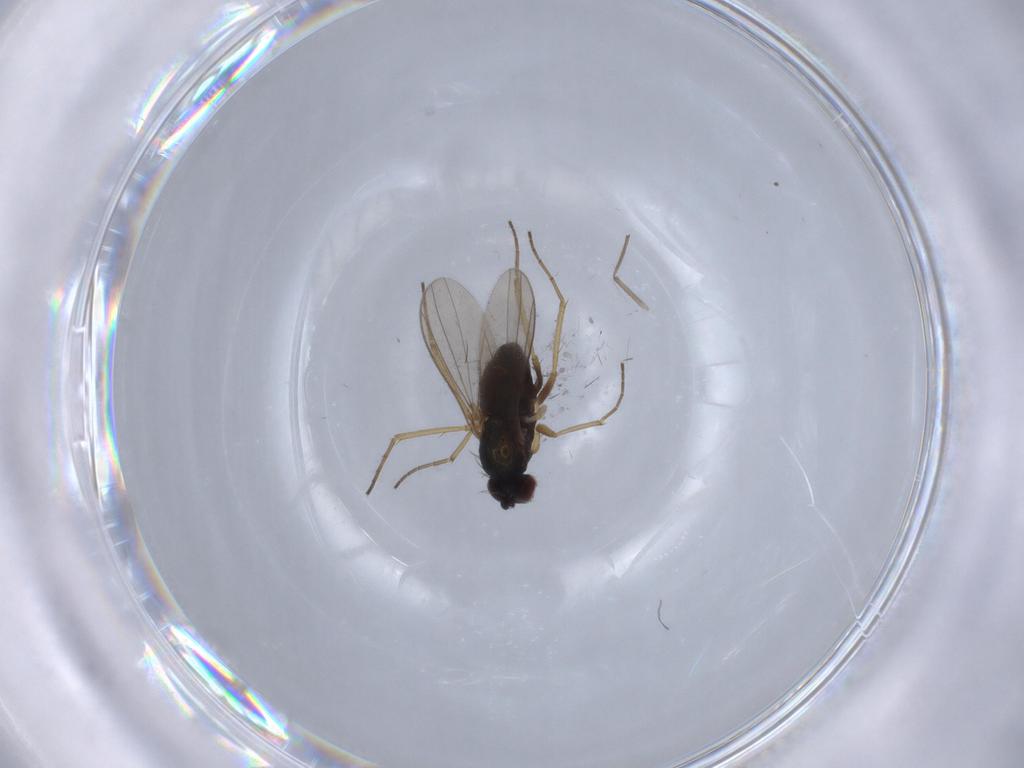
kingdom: Animalia
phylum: Arthropoda
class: Insecta
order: Diptera
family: Dolichopodidae
